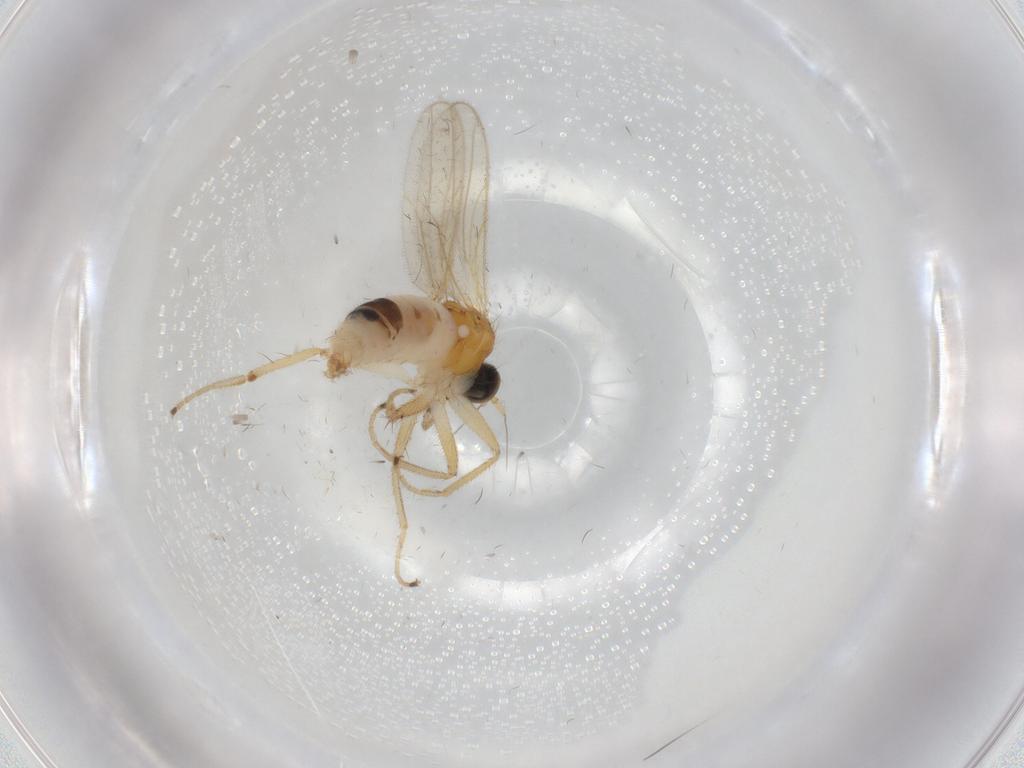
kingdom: Animalia
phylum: Arthropoda
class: Insecta
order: Diptera
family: Hybotidae
